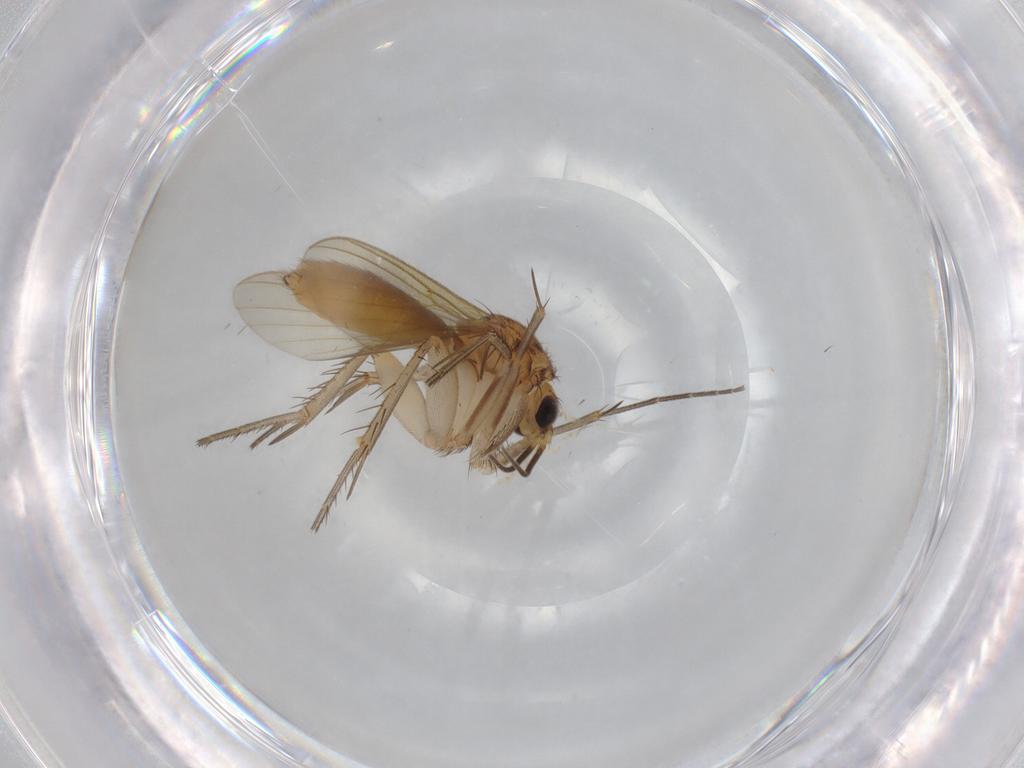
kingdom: Animalia
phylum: Arthropoda
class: Insecta
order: Diptera
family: Mycetophilidae
